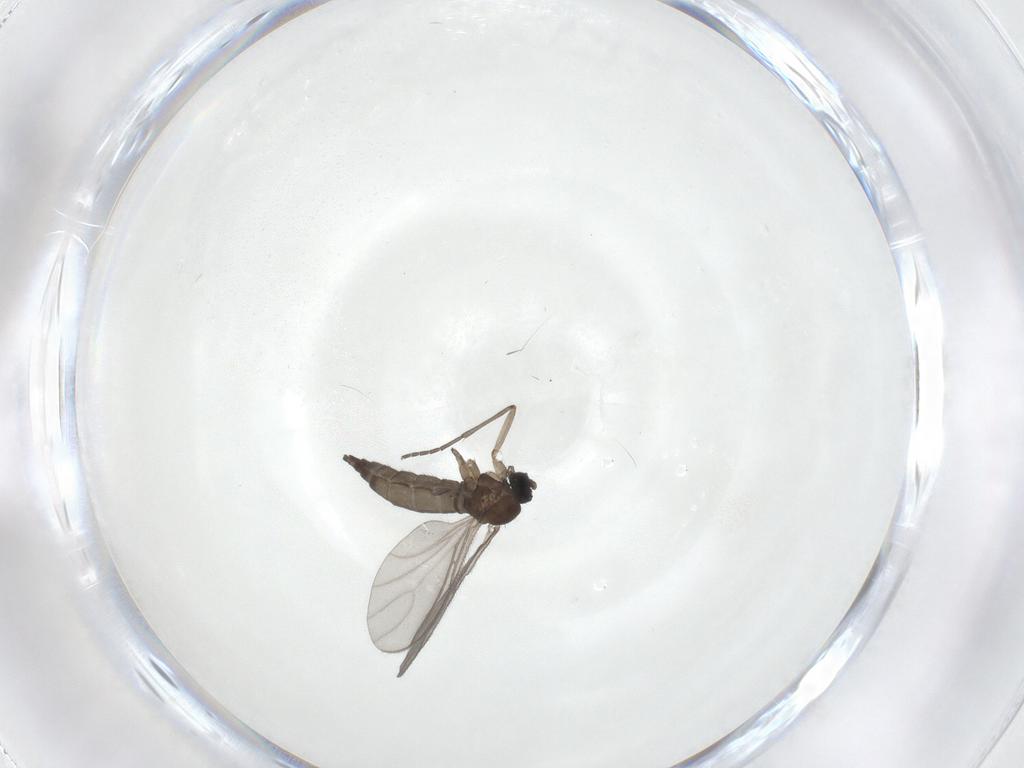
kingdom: Animalia
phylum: Arthropoda
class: Insecta
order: Diptera
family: Sciaridae
